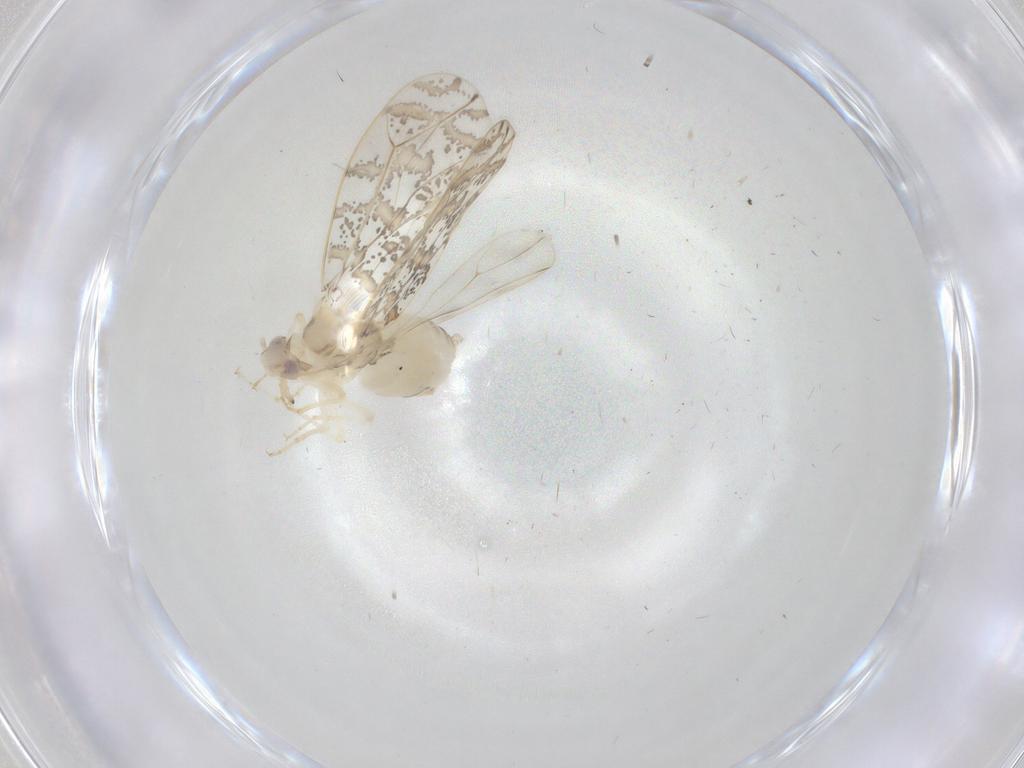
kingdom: Animalia
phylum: Arthropoda
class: Insecta
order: Hemiptera
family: Aleyrodidae
